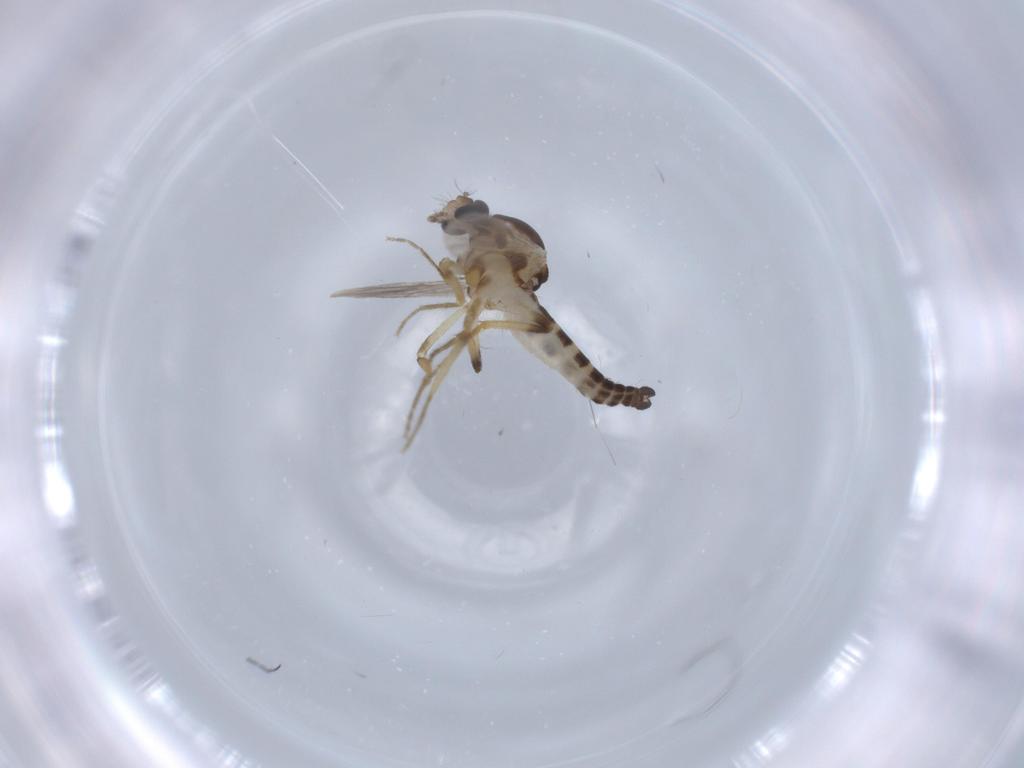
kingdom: Animalia
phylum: Arthropoda
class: Insecta
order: Diptera
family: Ceratopogonidae
